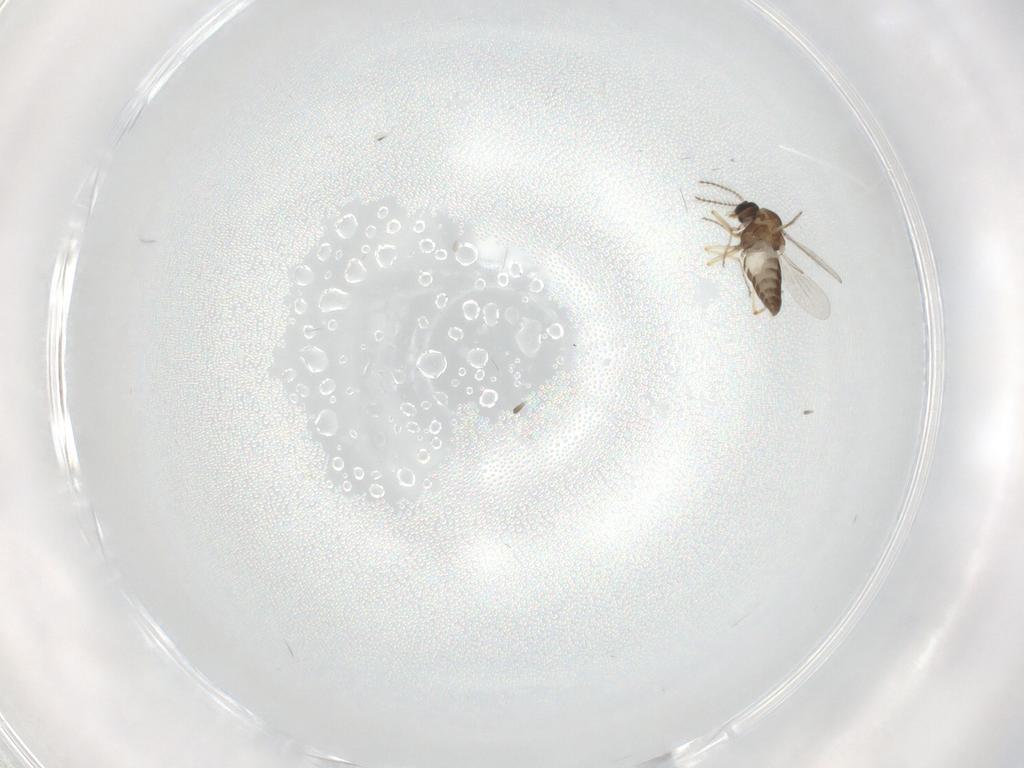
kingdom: Animalia
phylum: Arthropoda
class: Insecta
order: Diptera
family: Cecidomyiidae
